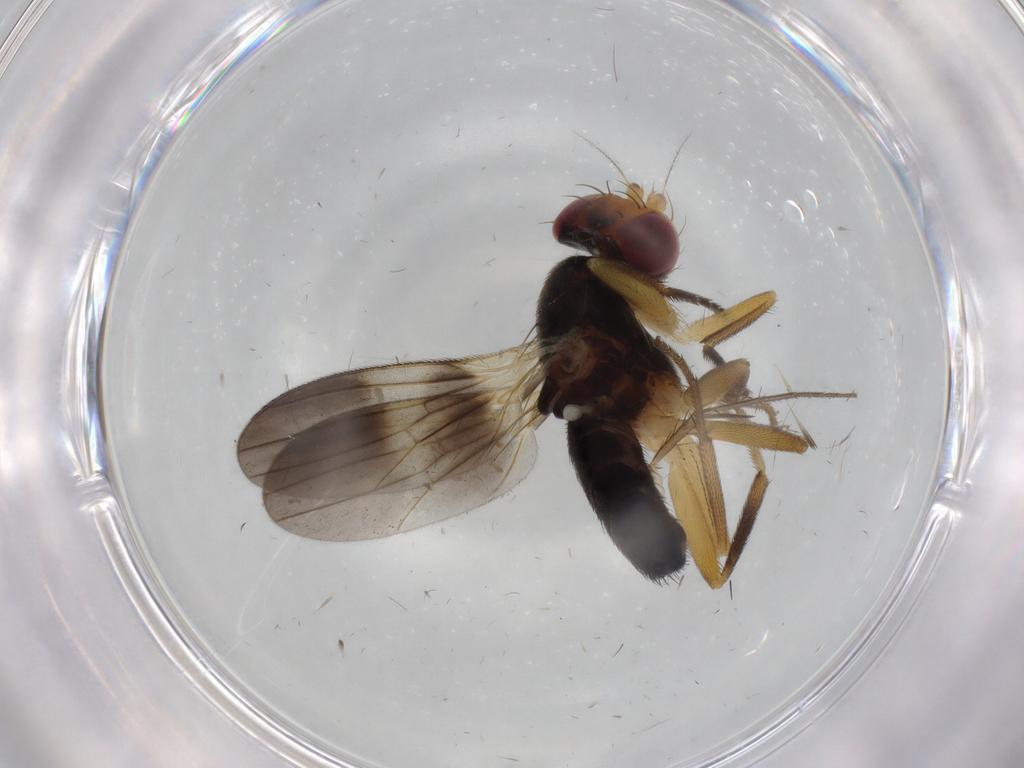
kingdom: Animalia
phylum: Arthropoda
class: Insecta
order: Diptera
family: Clusiidae
